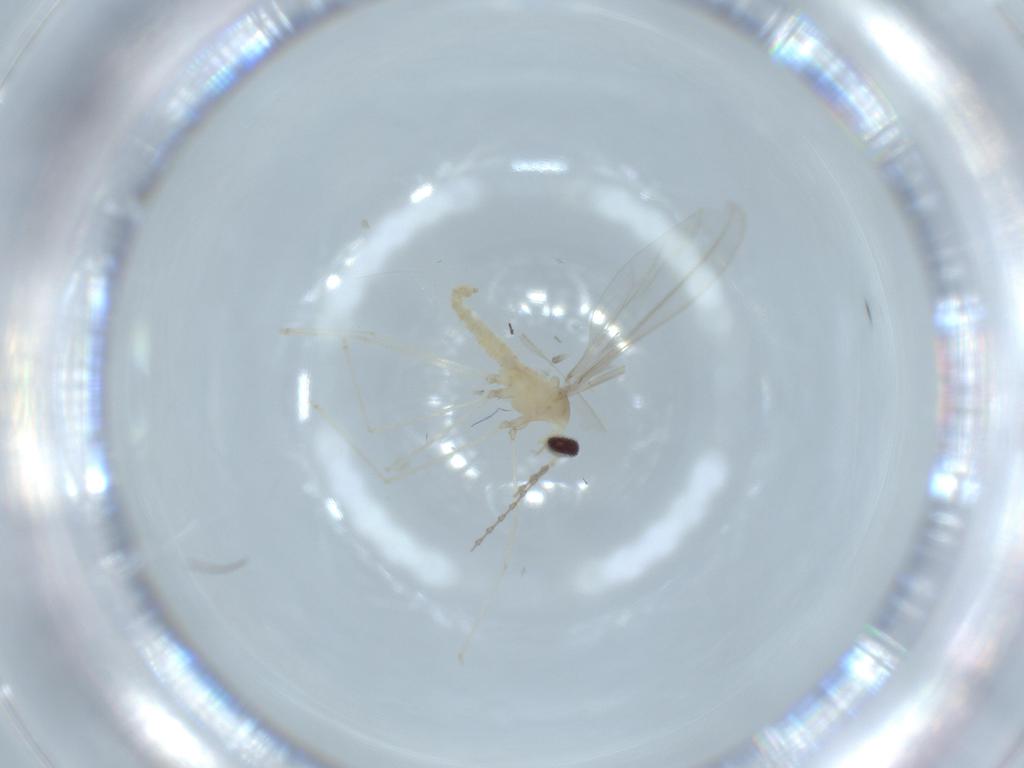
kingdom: Animalia
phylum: Arthropoda
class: Insecta
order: Diptera
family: Cecidomyiidae
